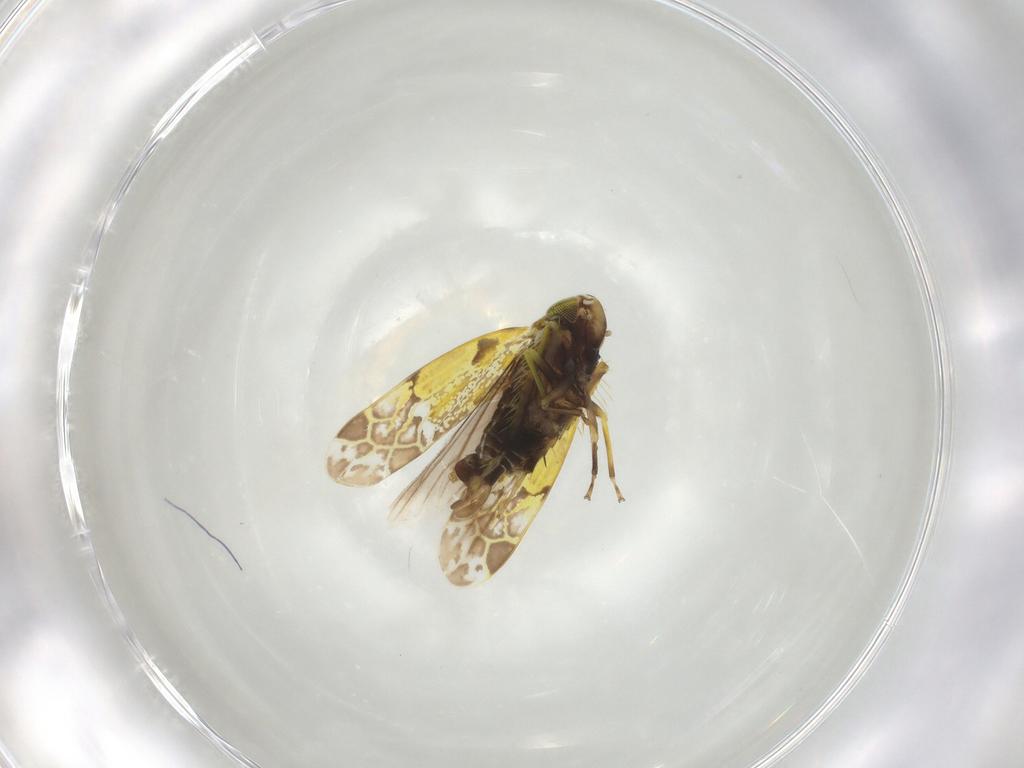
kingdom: Animalia
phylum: Arthropoda
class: Insecta
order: Hemiptera
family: Cicadellidae
